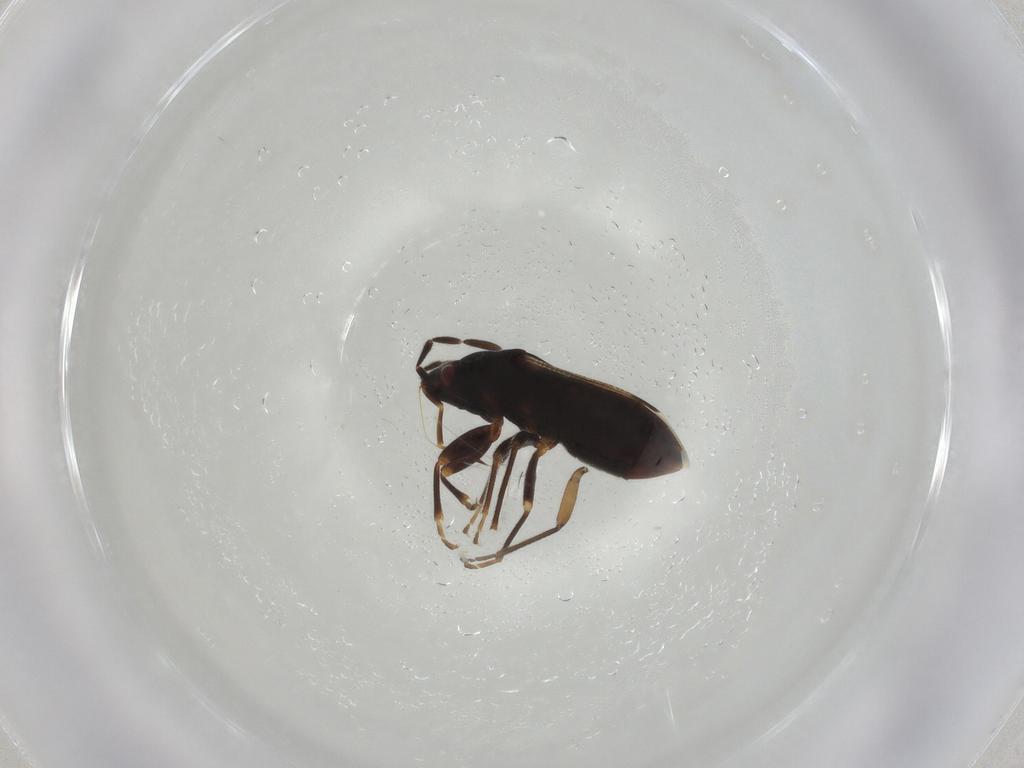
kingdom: Animalia
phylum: Arthropoda
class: Insecta
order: Hemiptera
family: Rhyparochromidae
